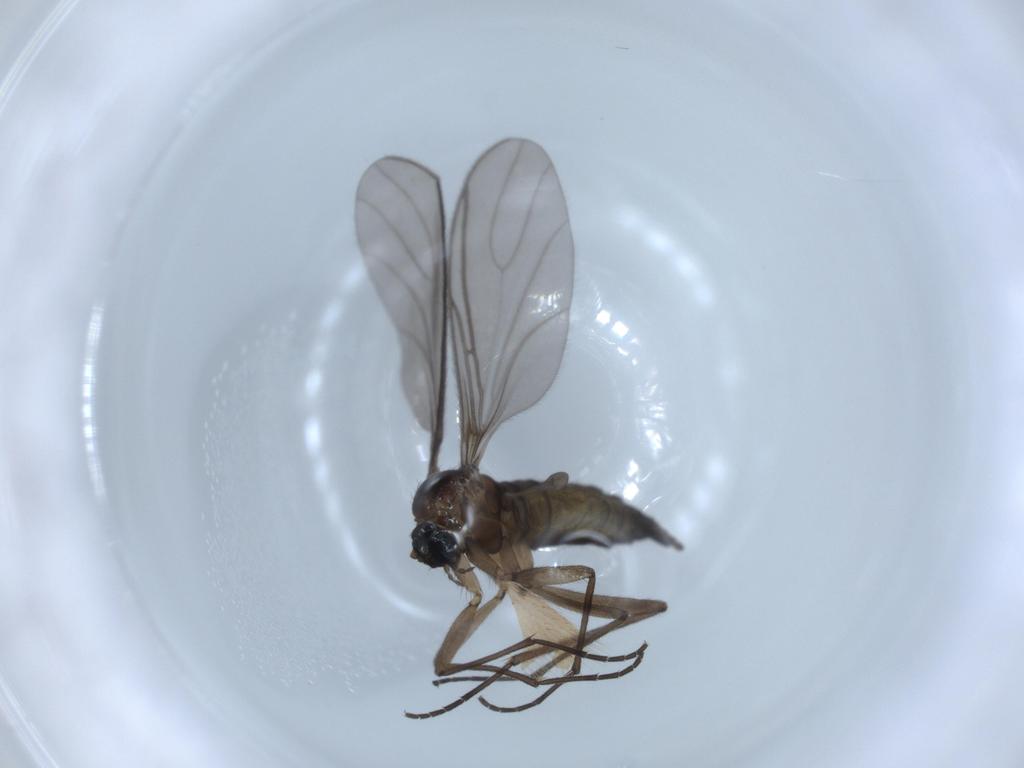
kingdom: Animalia
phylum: Arthropoda
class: Insecta
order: Diptera
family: Sciaridae
